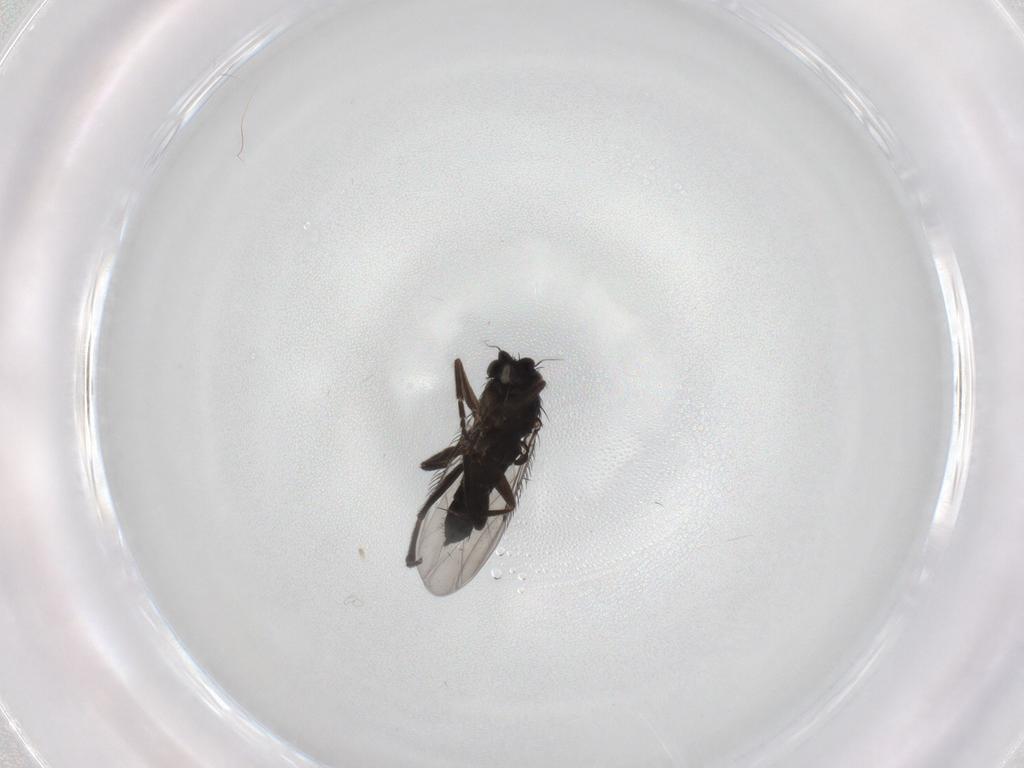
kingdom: Animalia
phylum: Arthropoda
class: Insecta
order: Diptera
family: Phoridae
